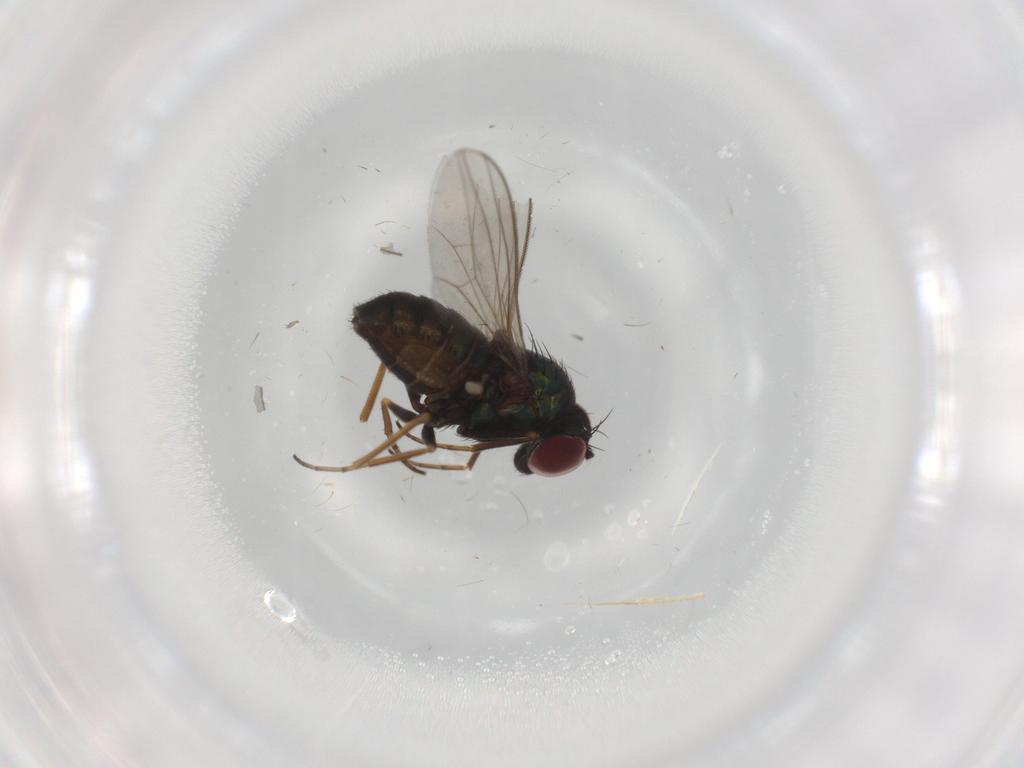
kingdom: Animalia
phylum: Arthropoda
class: Insecta
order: Diptera
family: Dolichopodidae
